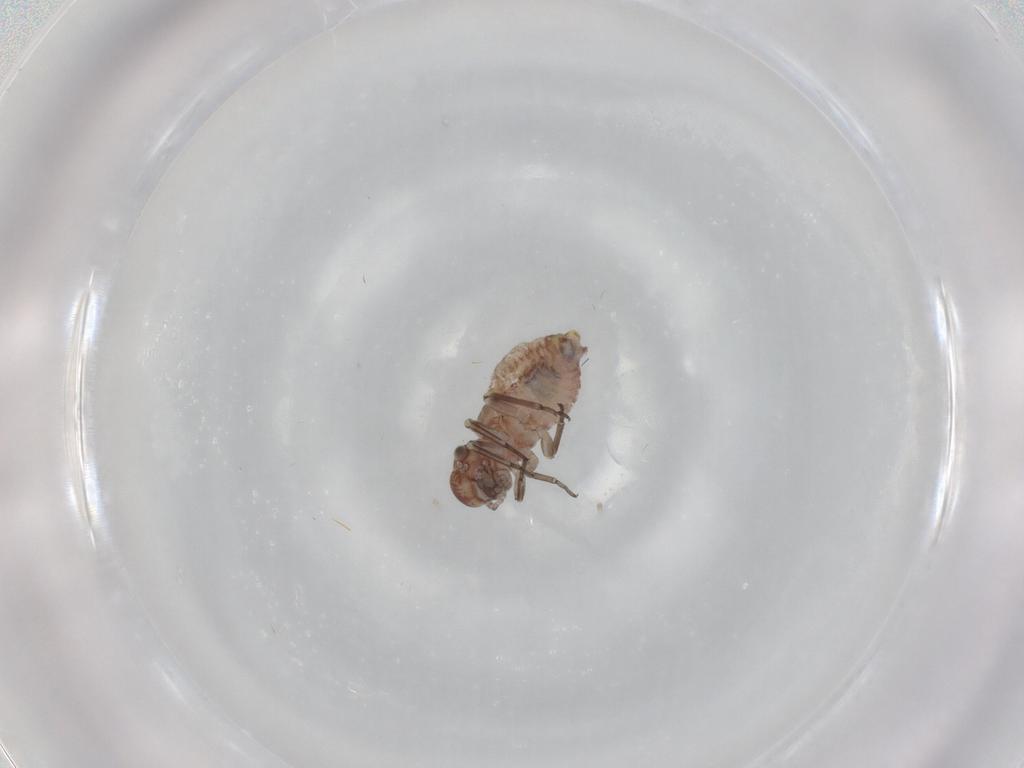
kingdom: Animalia
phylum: Arthropoda
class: Insecta
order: Psocodea
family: Psocidae
